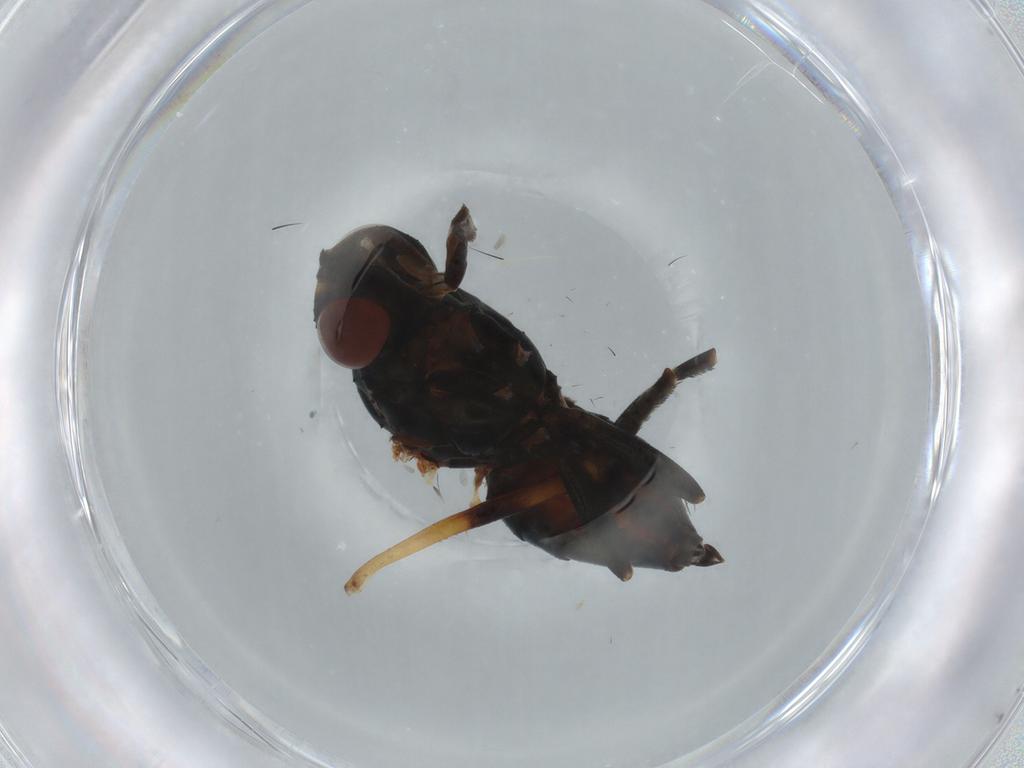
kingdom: Animalia
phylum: Arthropoda
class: Insecta
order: Diptera
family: Anthomyiidae
